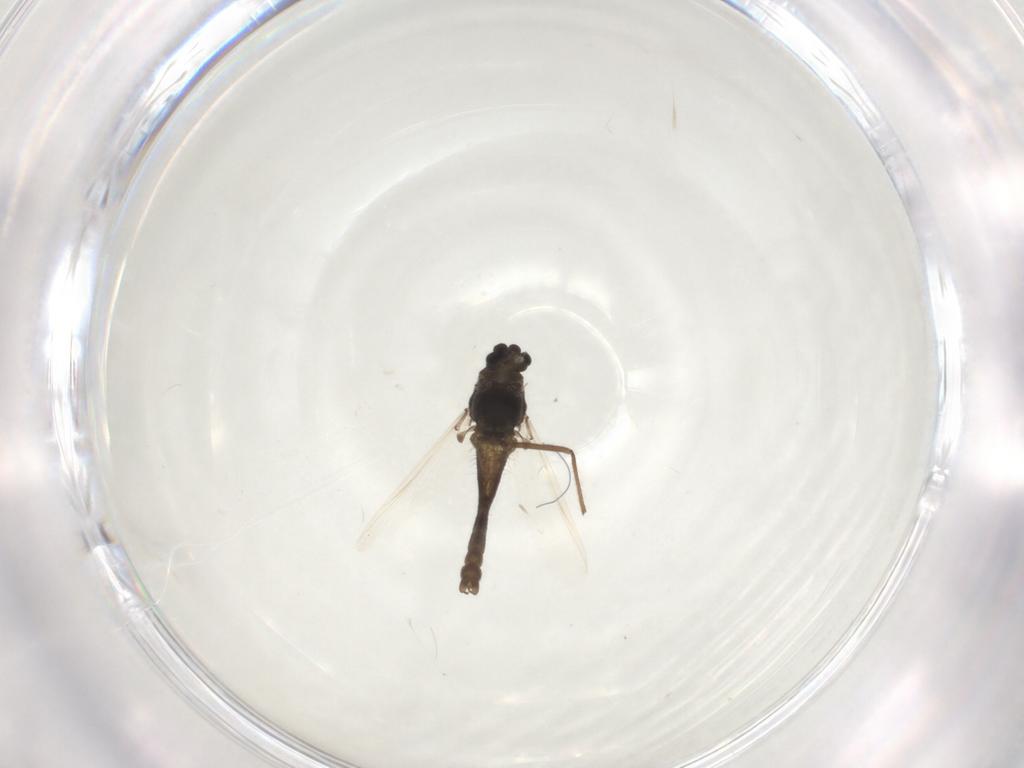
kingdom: Animalia
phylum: Arthropoda
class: Insecta
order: Diptera
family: Chironomidae
